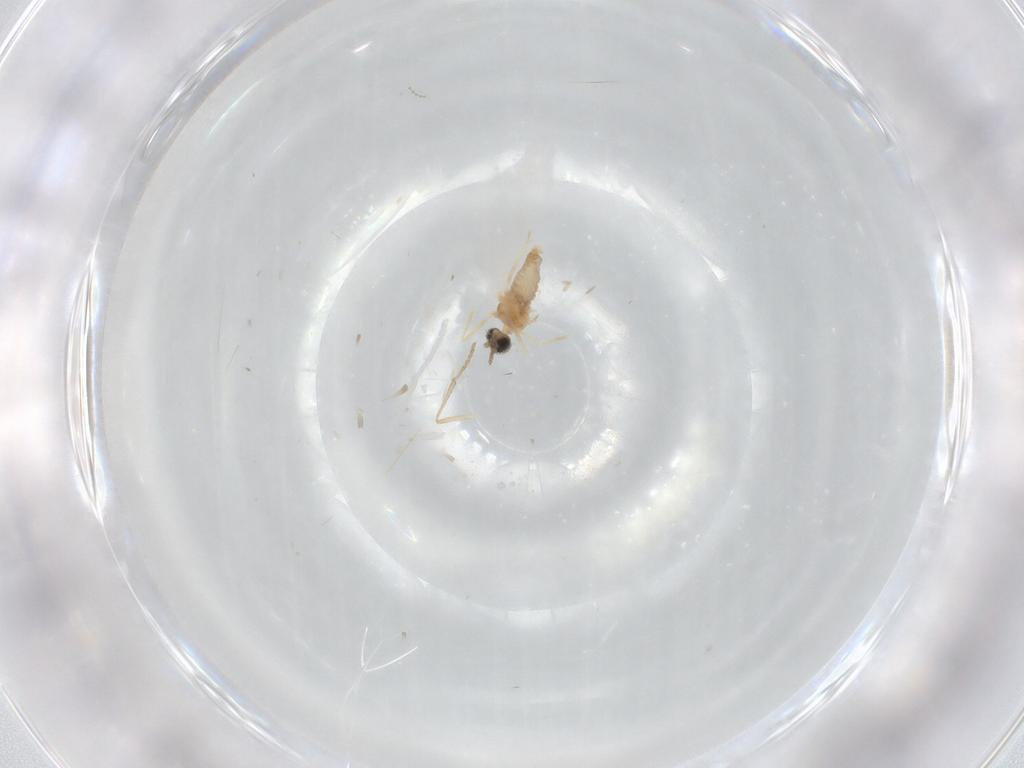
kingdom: Animalia
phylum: Arthropoda
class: Insecta
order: Diptera
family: Cecidomyiidae
